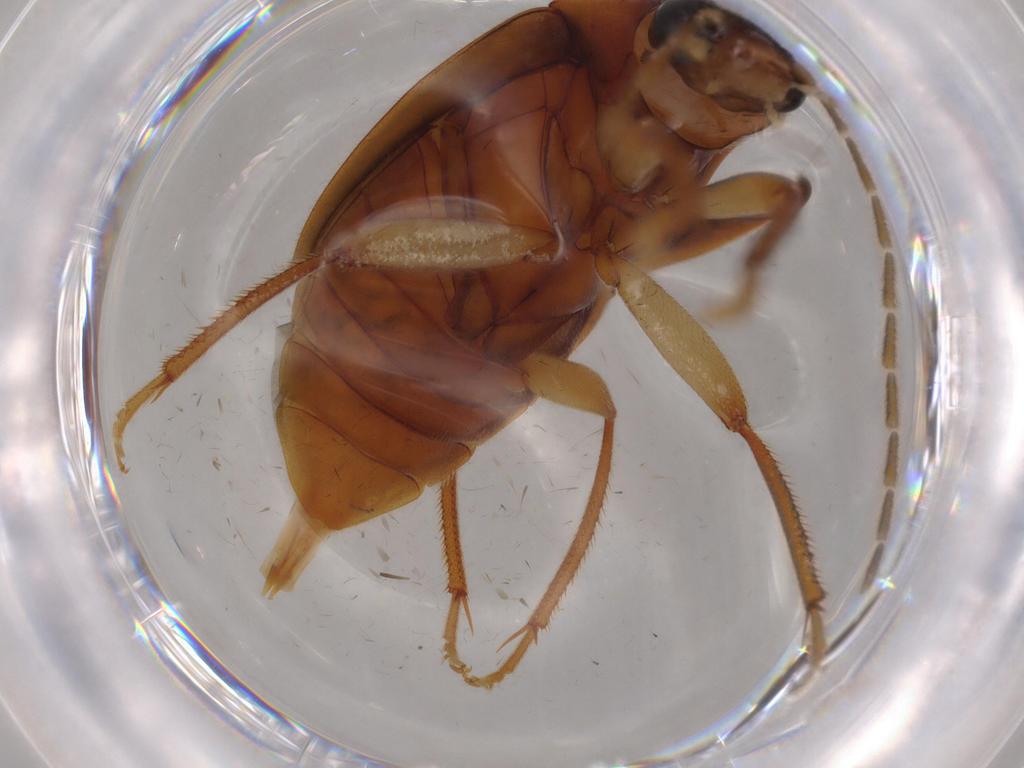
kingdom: Animalia
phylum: Arthropoda
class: Insecta
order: Coleoptera
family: Ptilodactylidae
